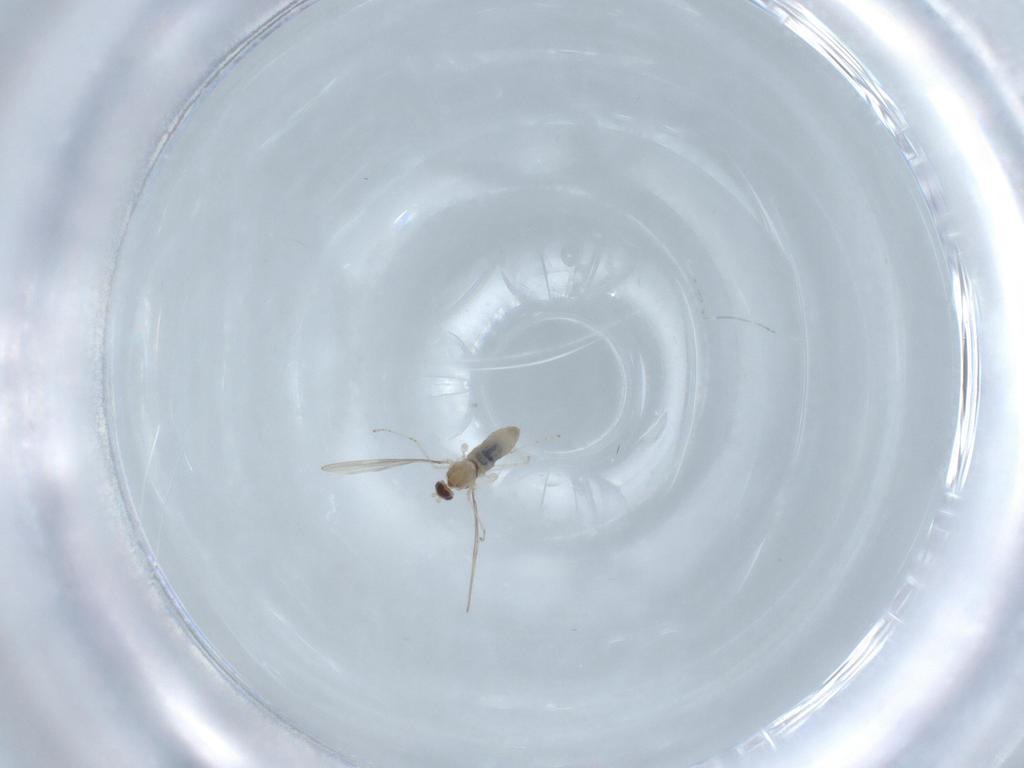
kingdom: Animalia
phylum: Arthropoda
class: Insecta
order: Diptera
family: Cecidomyiidae
